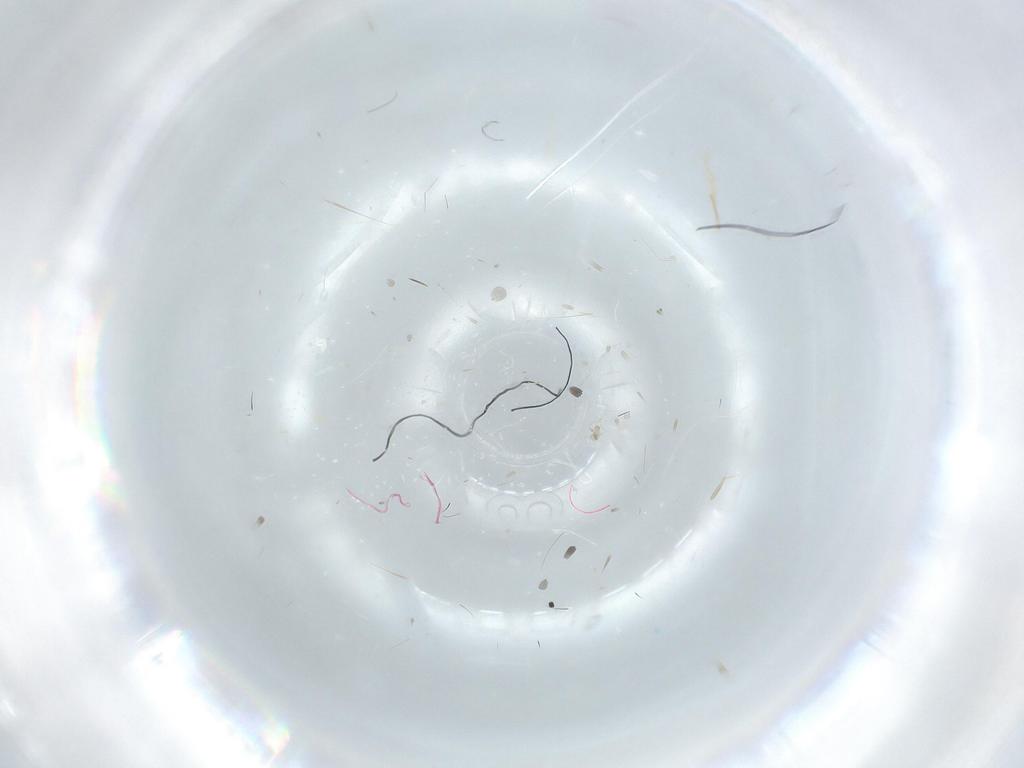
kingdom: Animalia
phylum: Arthropoda
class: Insecta
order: Diptera
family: Cecidomyiidae
